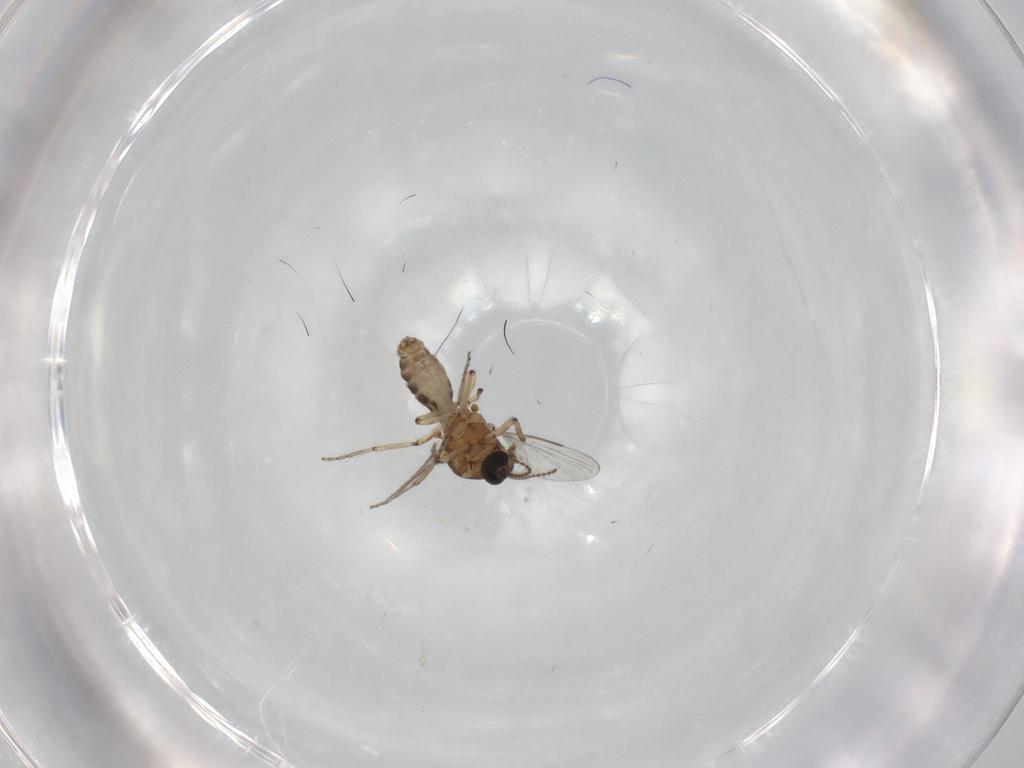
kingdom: Animalia
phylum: Arthropoda
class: Insecta
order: Diptera
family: Ceratopogonidae
